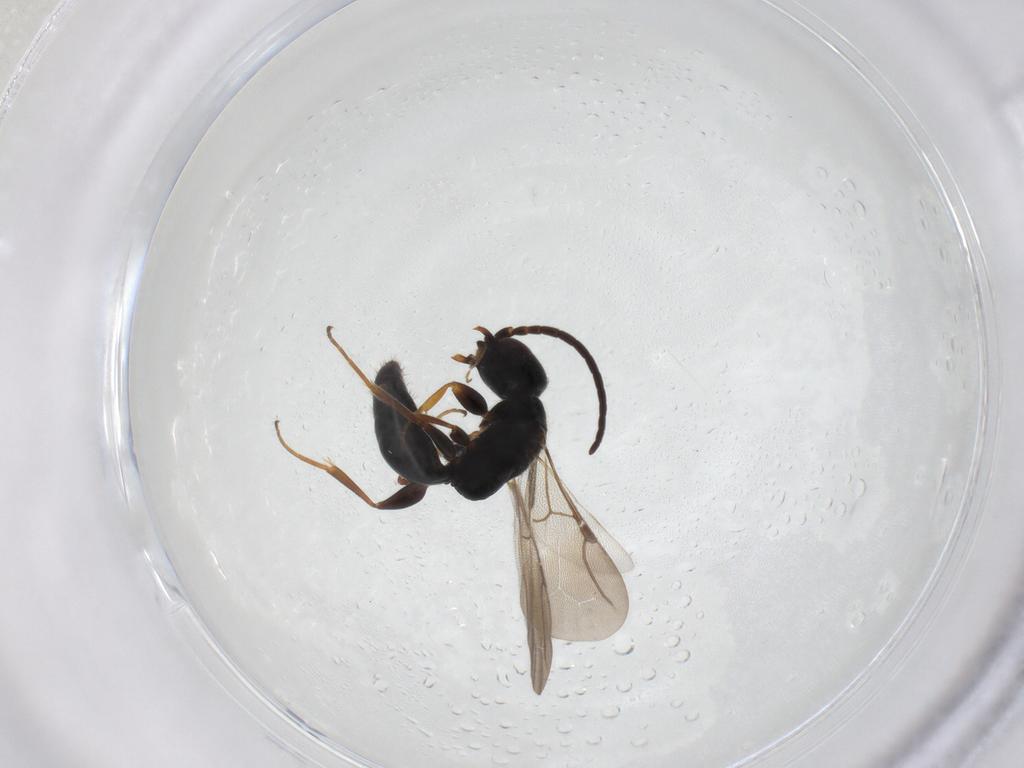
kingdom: Animalia
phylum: Arthropoda
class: Insecta
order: Hymenoptera
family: Bethylidae
